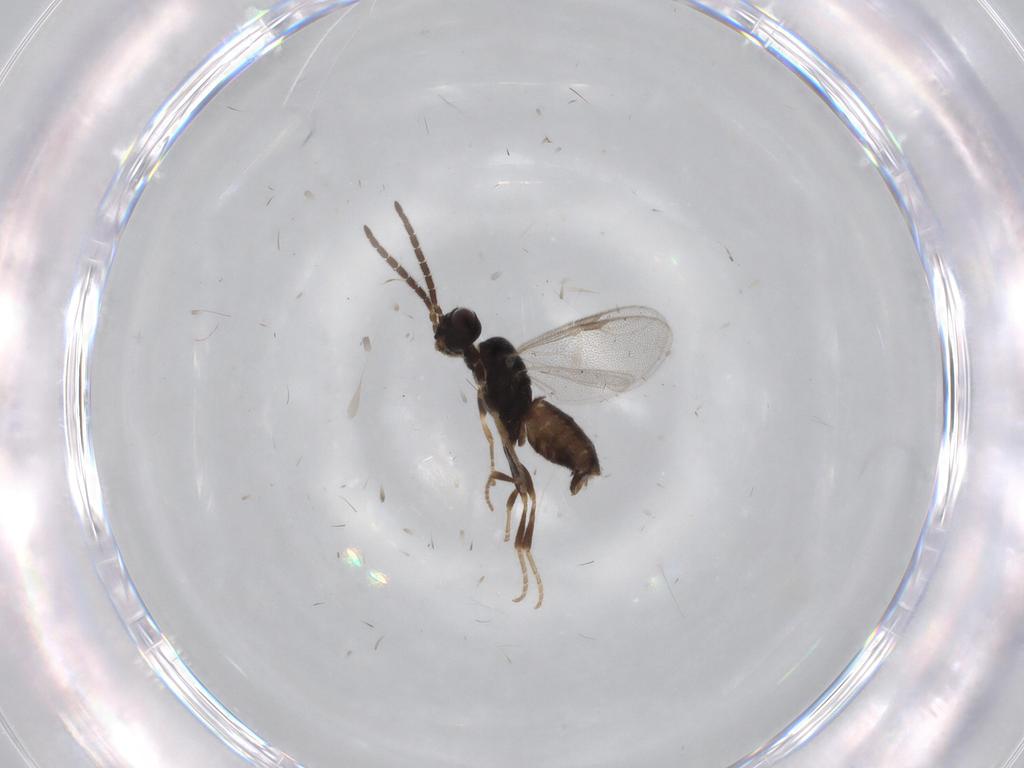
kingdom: Animalia
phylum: Arthropoda
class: Insecta
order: Hymenoptera
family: Dryinidae
